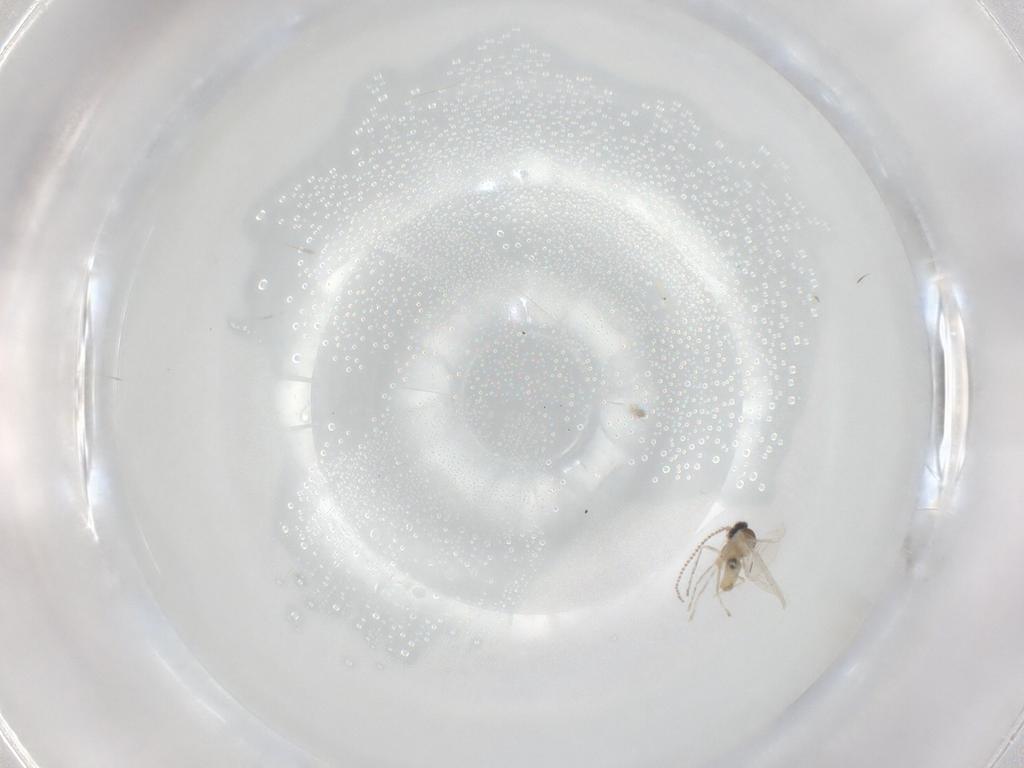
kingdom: Animalia
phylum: Arthropoda
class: Insecta
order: Diptera
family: Cecidomyiidae
